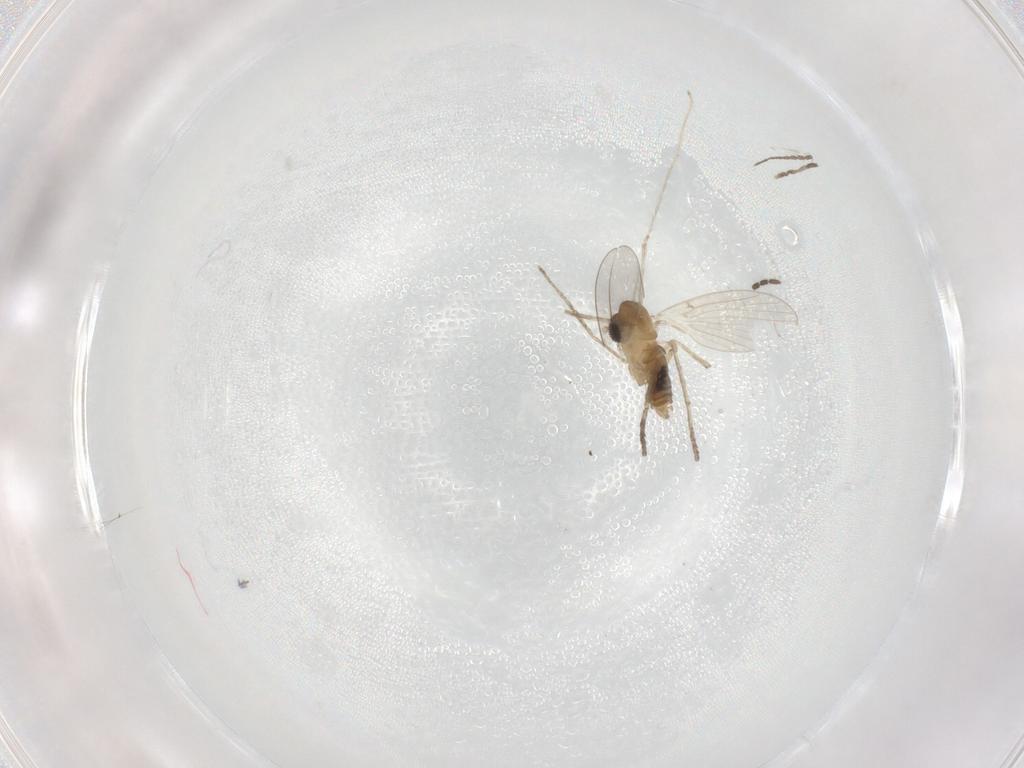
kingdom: Animalia
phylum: Arthropoda
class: Insecta
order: Diptera
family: Cecidomyiidae
